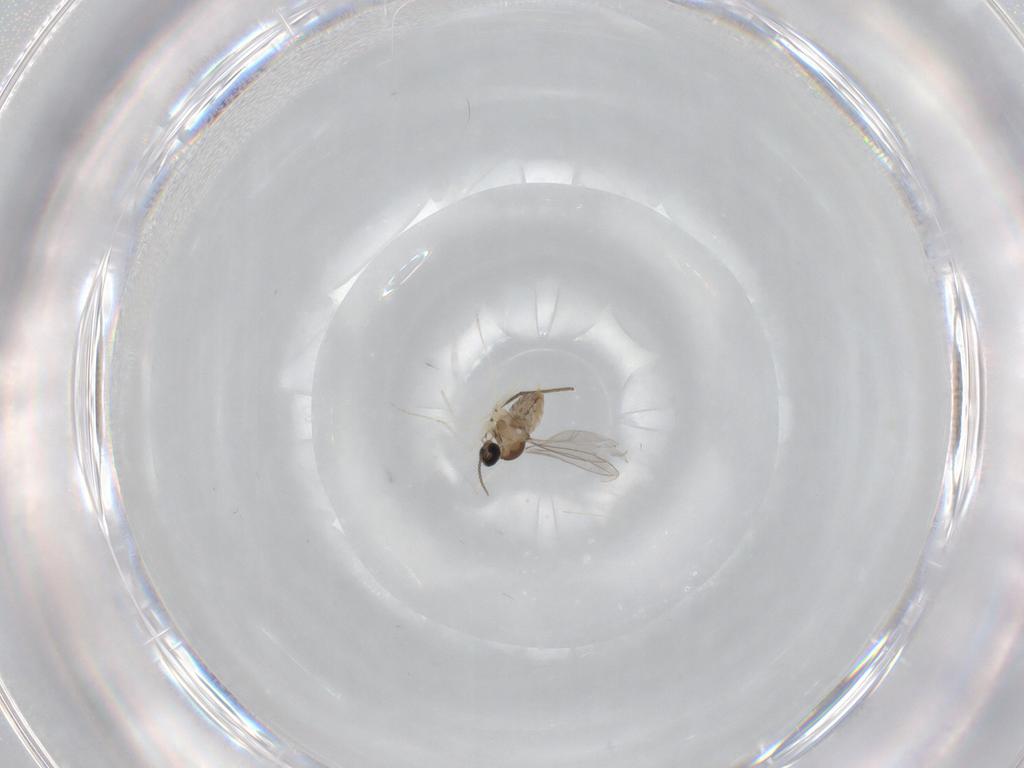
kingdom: Animalia
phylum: Arthropoda
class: Insecta
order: Diptera
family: Cecidomyiidae
